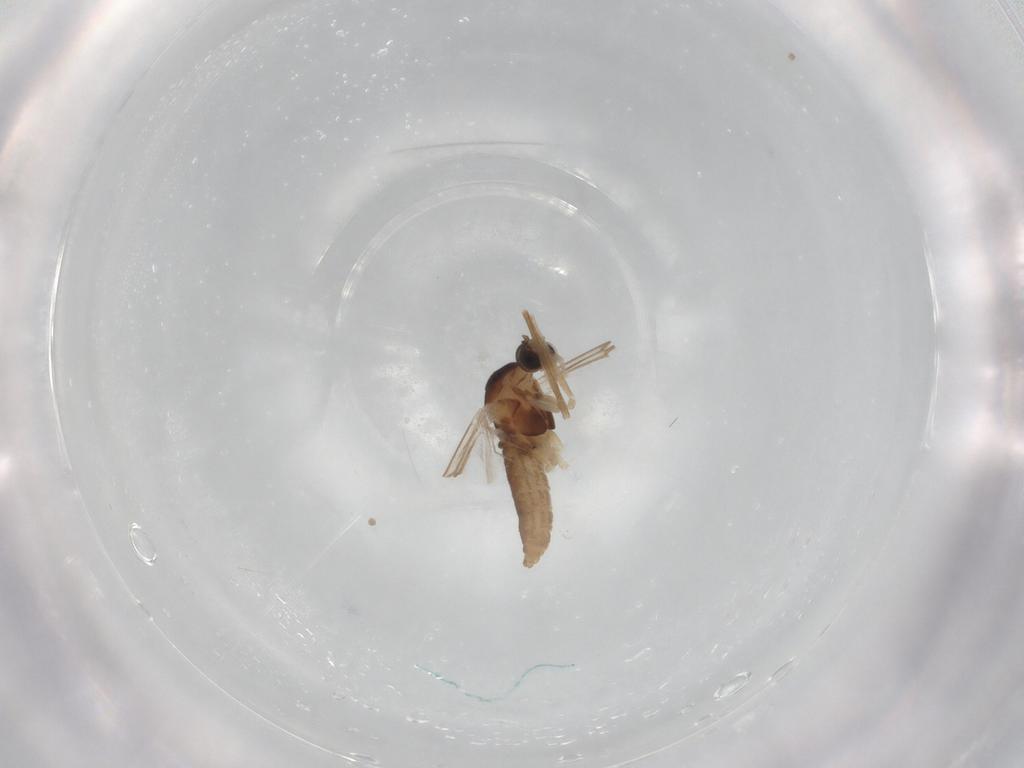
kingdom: Animalia
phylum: Arthropoda
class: Insecta
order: Diptera
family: Cecidomyiidae
